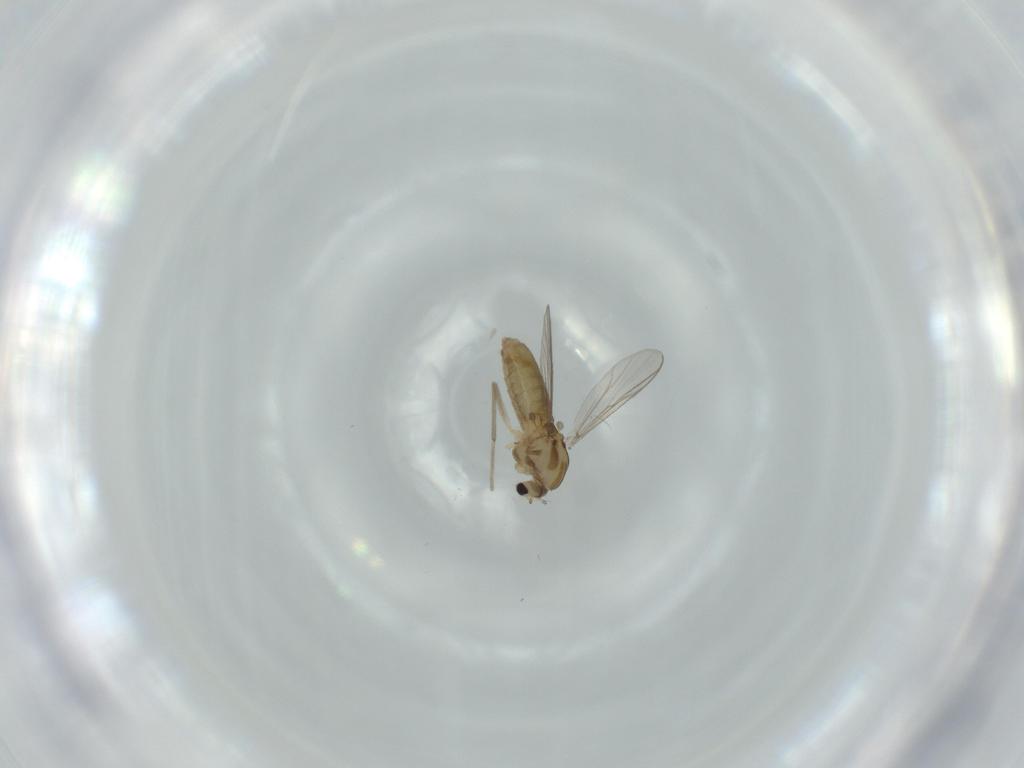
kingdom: Animalia
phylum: Arthropoda
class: Insecta
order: Diptera
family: Chironomidae
